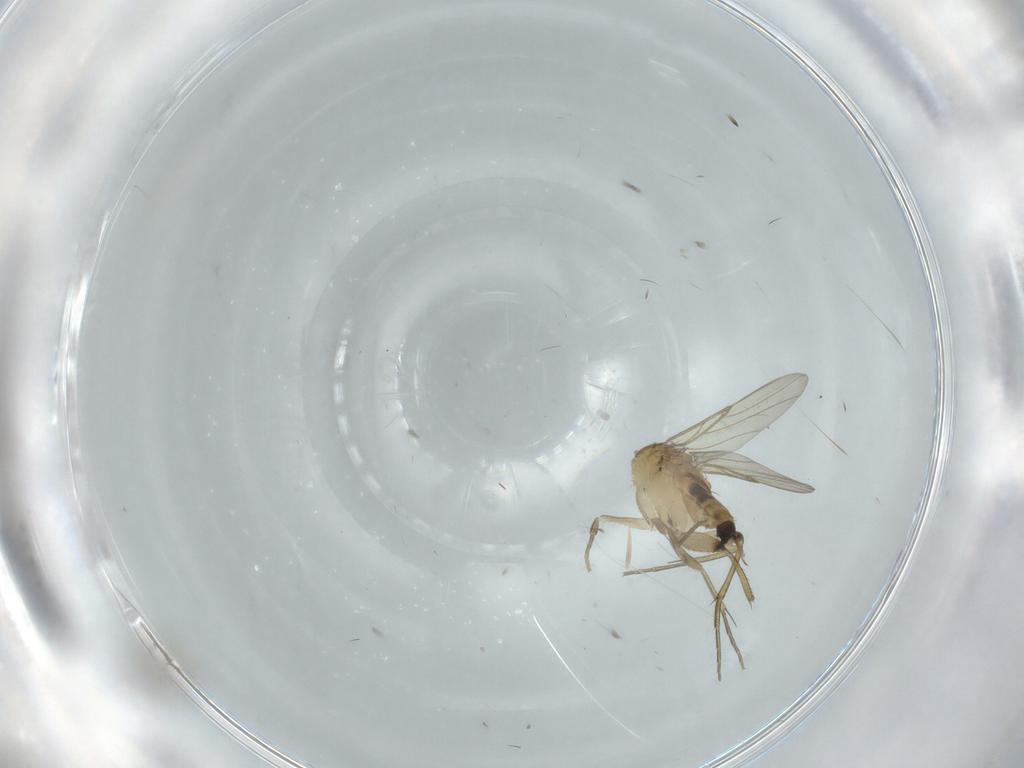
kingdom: Animalia
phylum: Arthropoda
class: Insecta
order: Diptera
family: Phoridae
